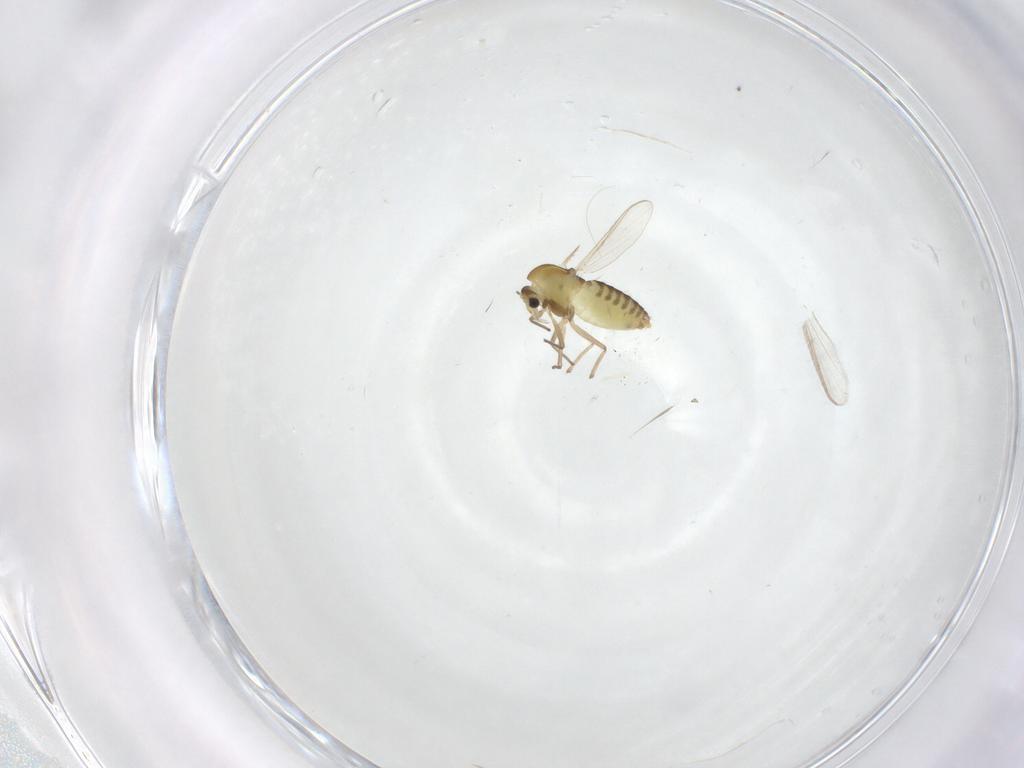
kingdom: Animalia
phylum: Arthropoda
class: Insecta
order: Diptera
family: Chironomidae
